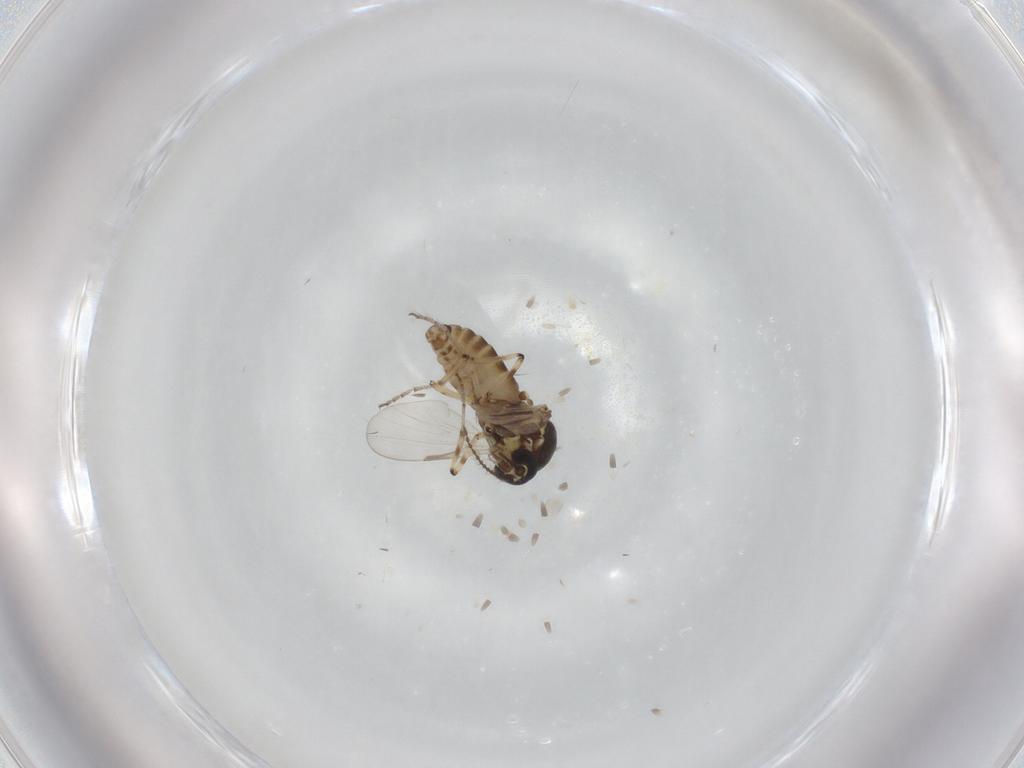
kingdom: Animalia
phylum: Arthropoda
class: Insecta
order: Diptera
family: Ceratopogonidae
